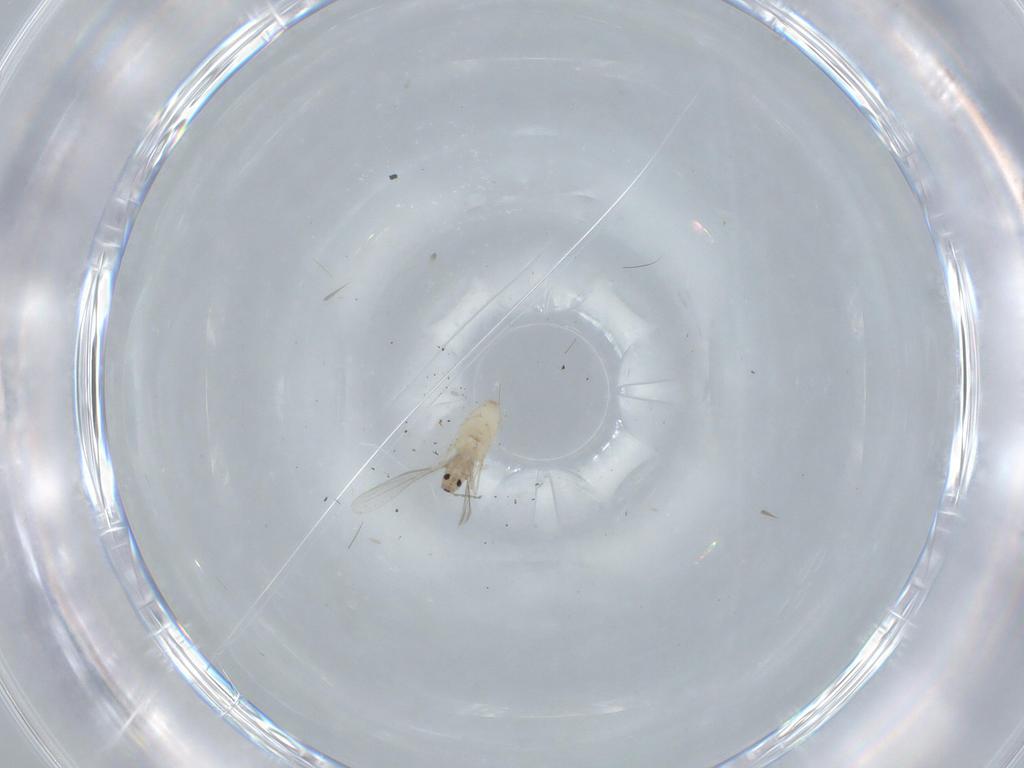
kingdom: Animalia
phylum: Arthropoda
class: Insecta
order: Diptera
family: Cecidomyiidae
